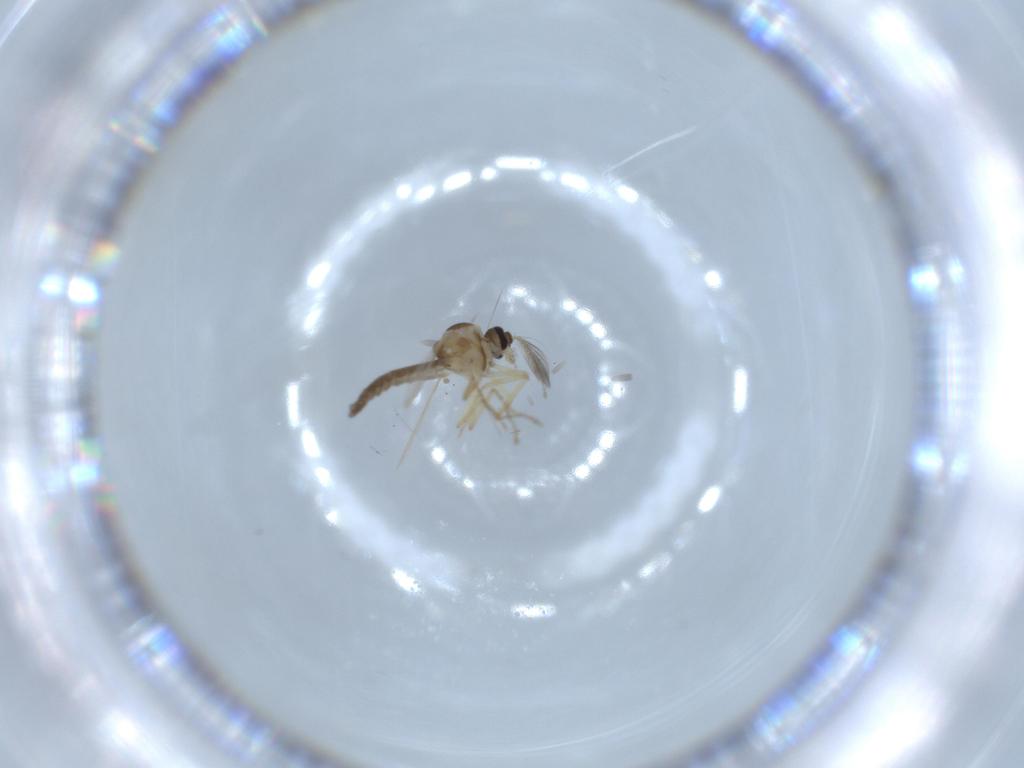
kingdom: Animalia
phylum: Arthropoda
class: Insecta
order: Diptera
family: Ceratopogonidae
